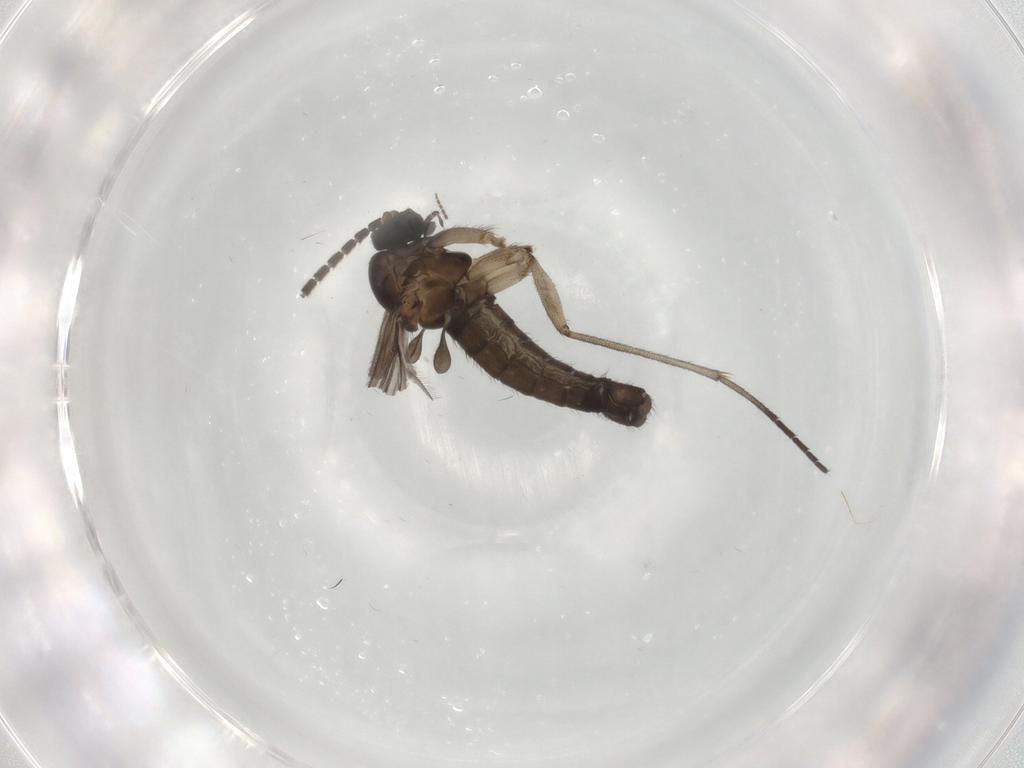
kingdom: Animalia
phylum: Arthropoda
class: Insecta
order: Diptera
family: Sciaridae
